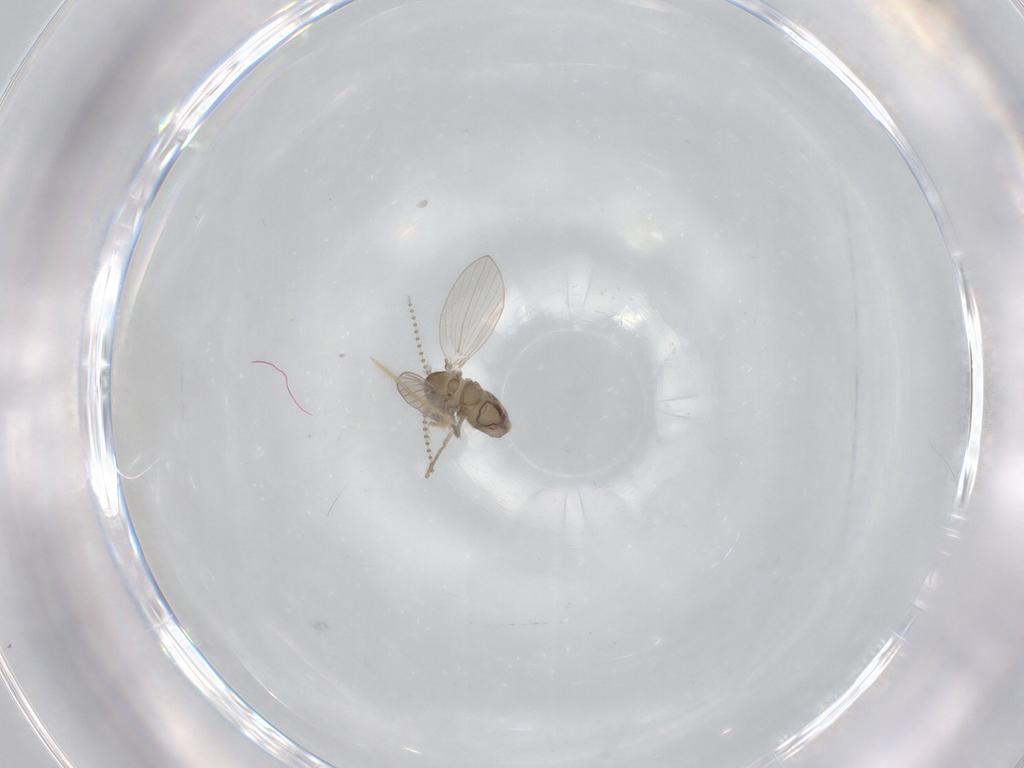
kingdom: Animalia
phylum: Arthropoda
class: Insecta
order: Diptera
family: Psychodidae
